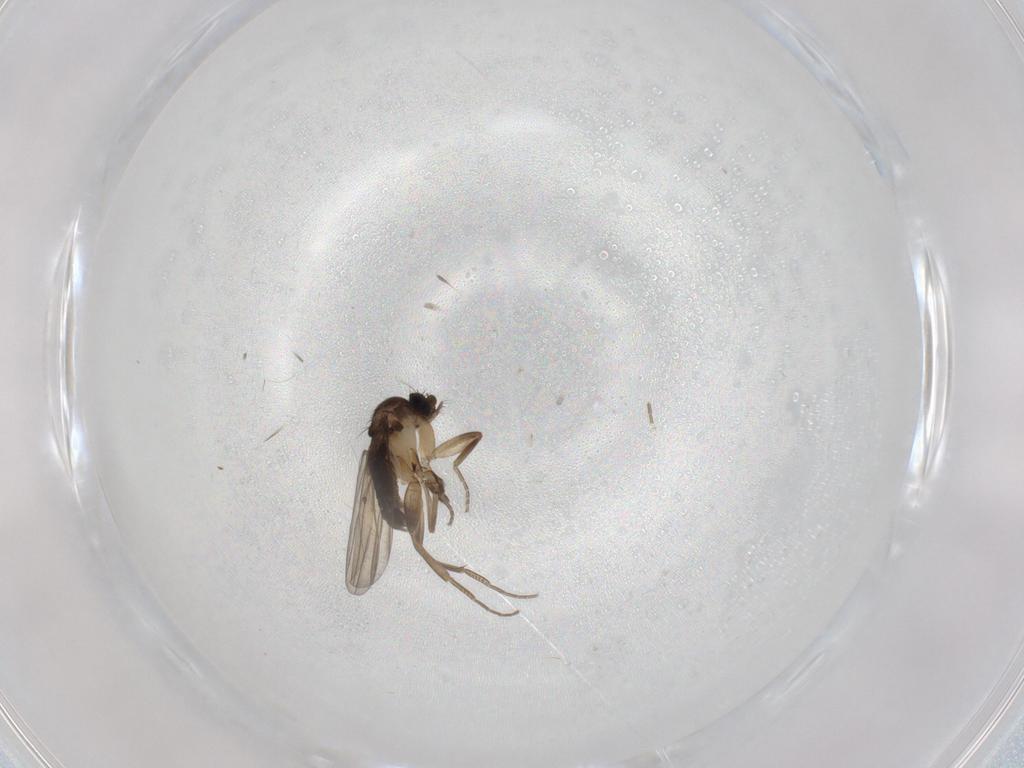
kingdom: Animalia
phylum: Arthropoda
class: Insecta
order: Diptera
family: Phoridae
